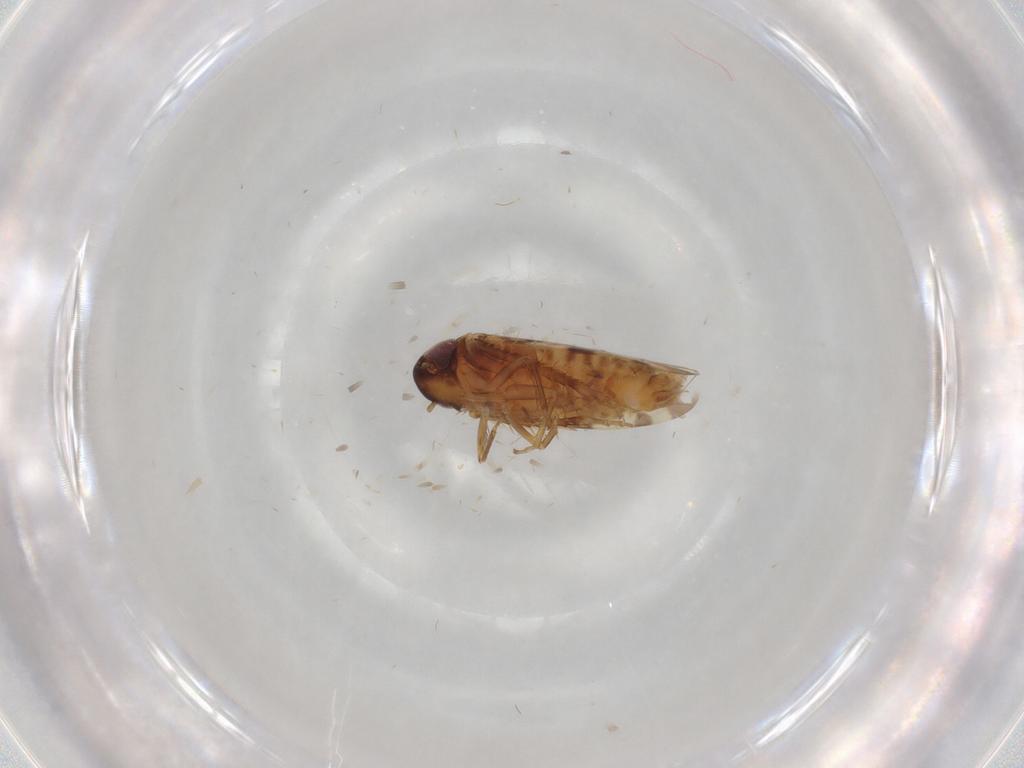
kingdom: Animalia
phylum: Arthropoda
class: Insecta
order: Hemiptera
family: Cicadellidae
